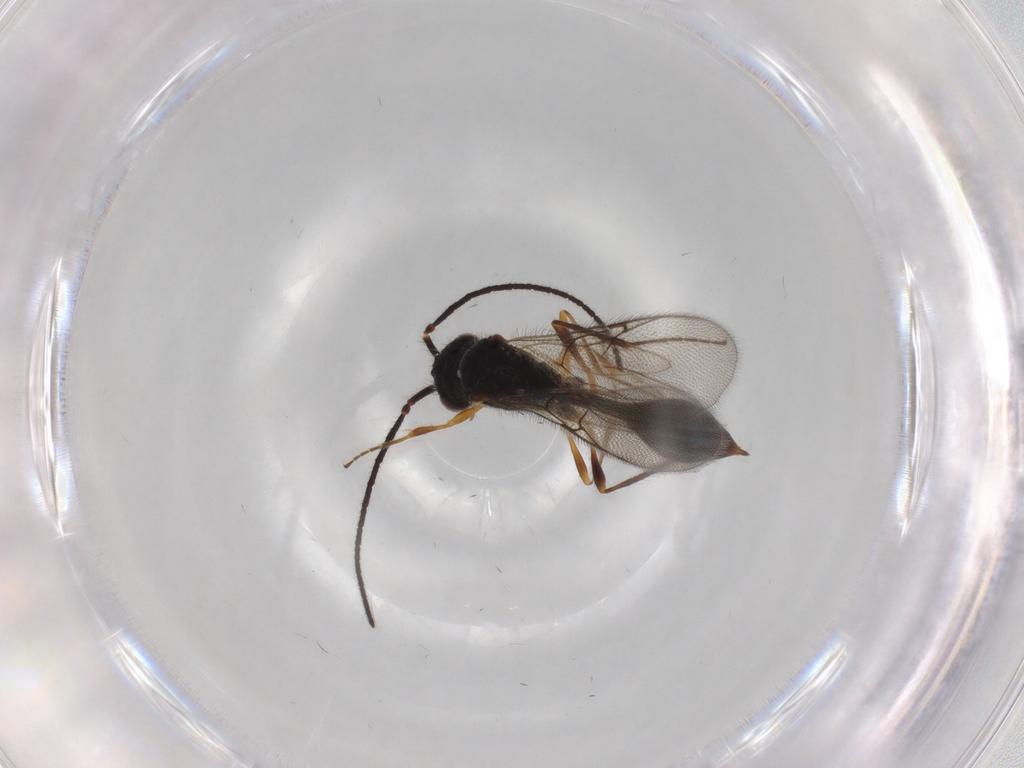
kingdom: Animalia
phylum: Arthropoda
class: Insecta
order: Hymenoptera
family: Diapriidae
